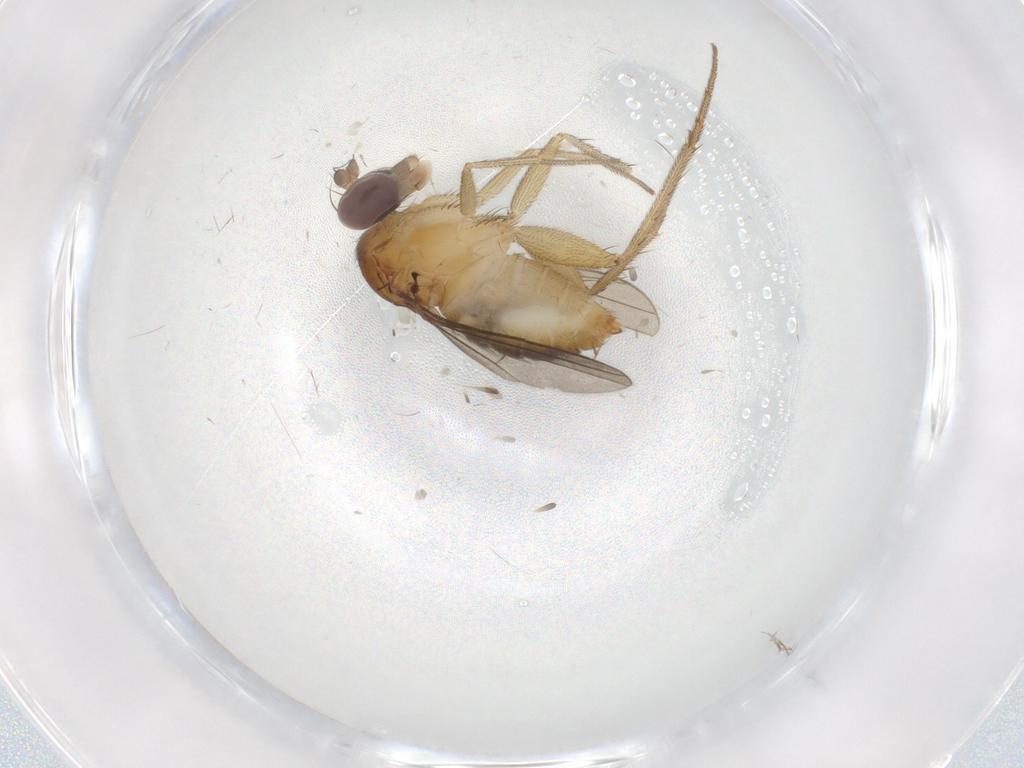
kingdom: Animalia
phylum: Arthropoda
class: Insecta
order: Diptera
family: Dolichopodidae
